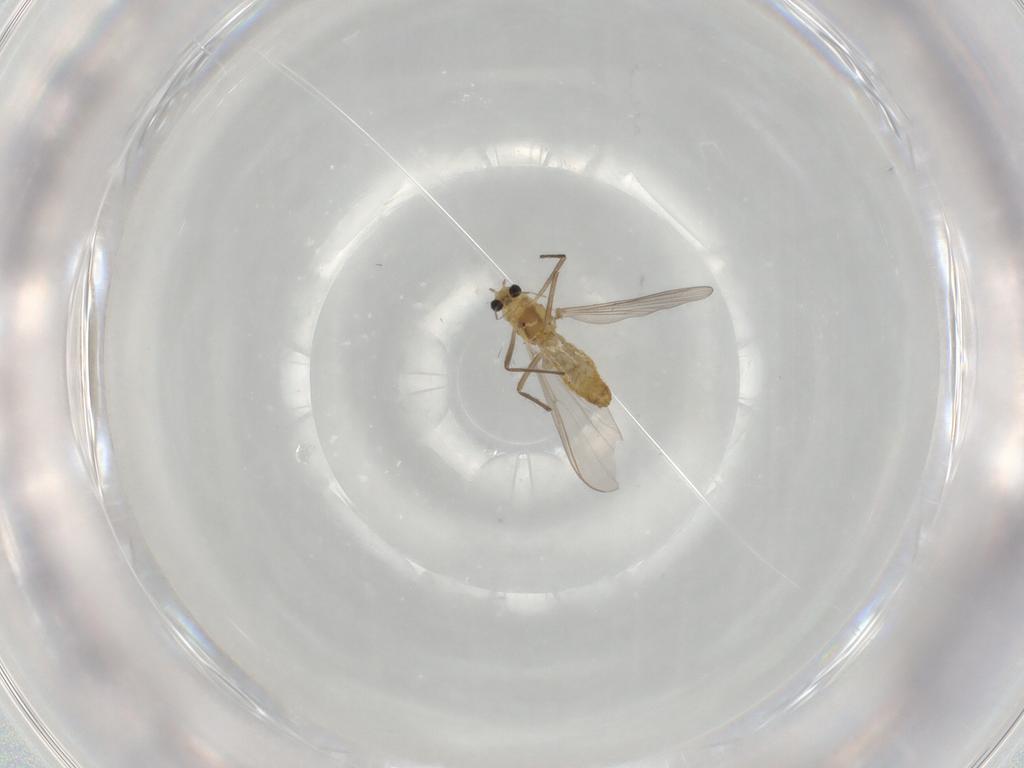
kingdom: Animalia
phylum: Arthropoda
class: Insecta
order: Diptera
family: Chironomidae
